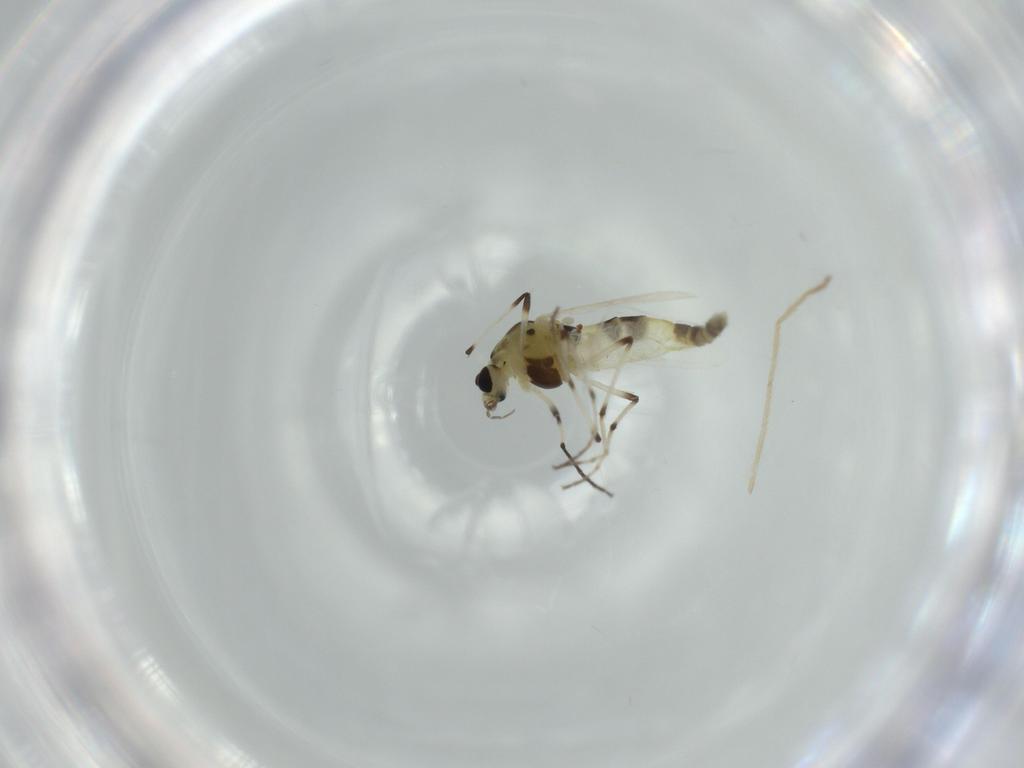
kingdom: Animalia
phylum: Arthropoda
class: Insecta
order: Diptera
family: Chironomidae
